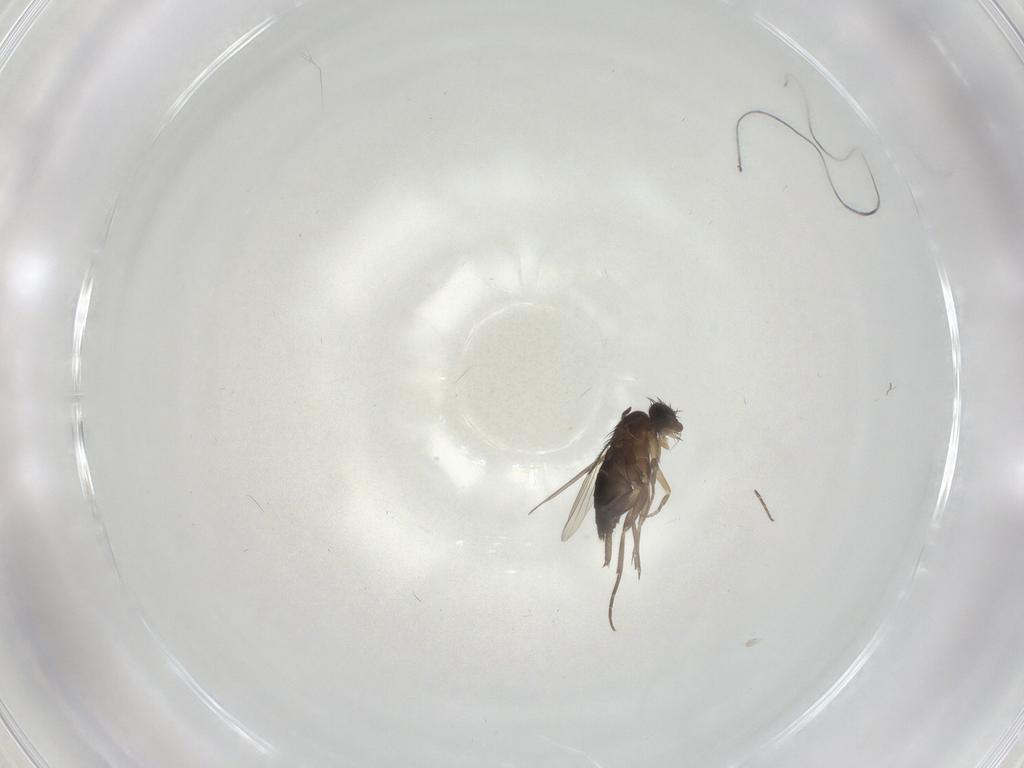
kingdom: Animalia
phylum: Arthropoda
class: Insecta
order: Diptera
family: Phoridae
